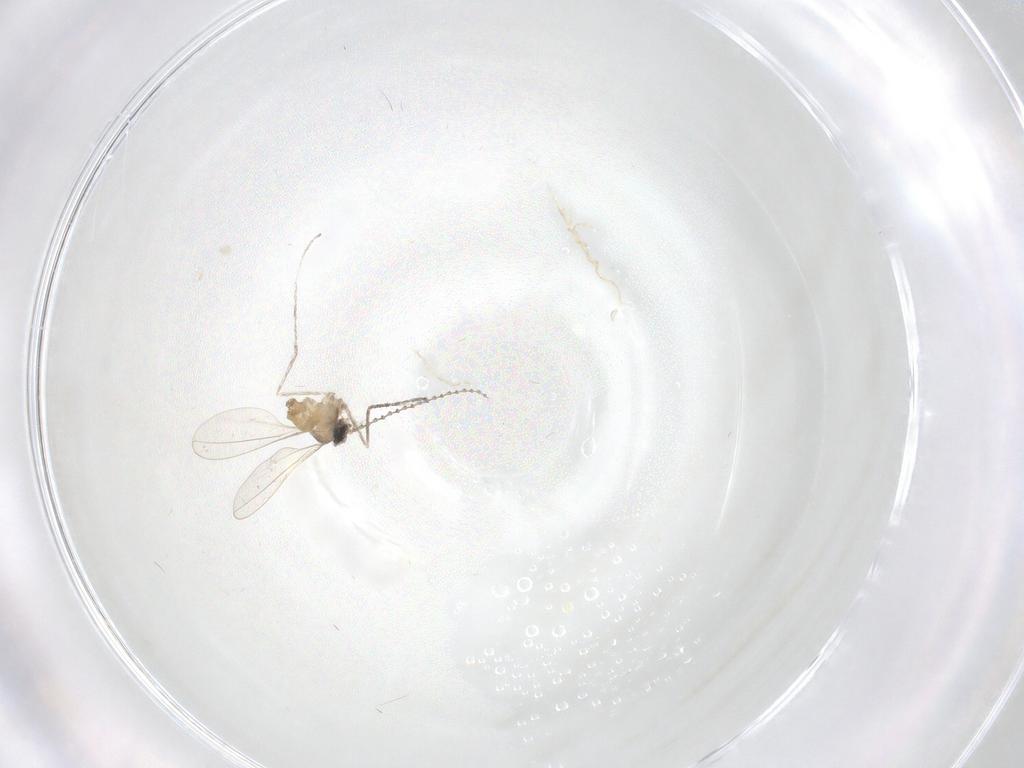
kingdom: Animalia
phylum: Arthropoda
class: Insecta
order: Diptera
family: Cecidomyiidae
